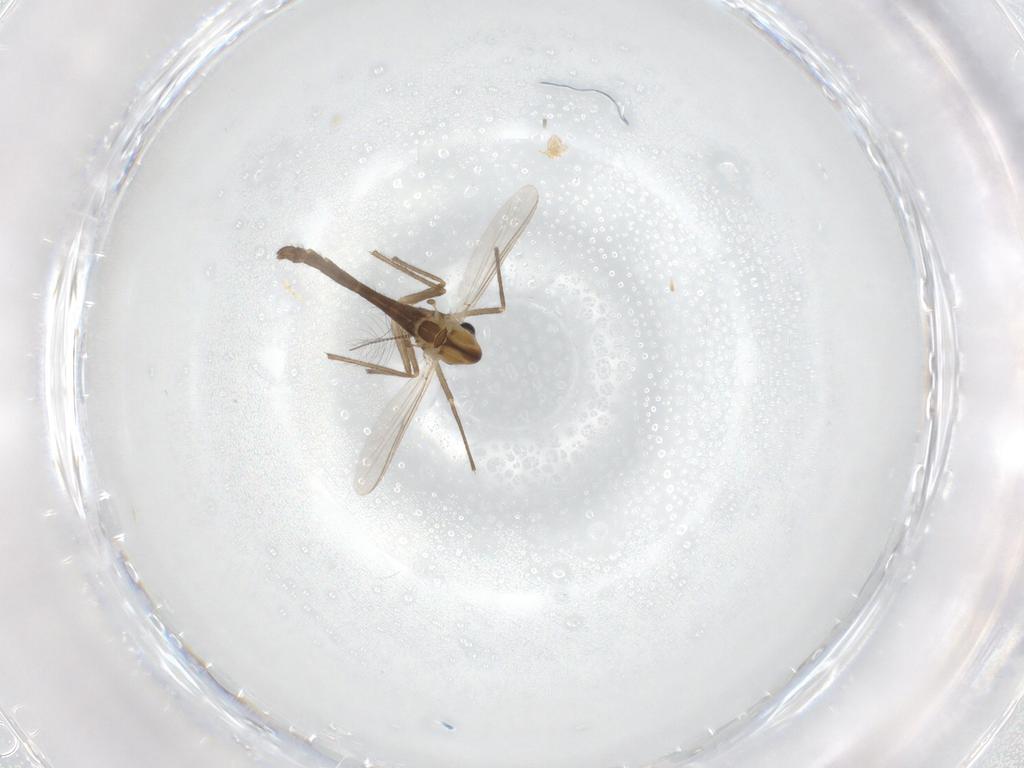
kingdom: Animalia
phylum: Arthropoda
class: Insecta
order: Diptera
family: Chironomidae
